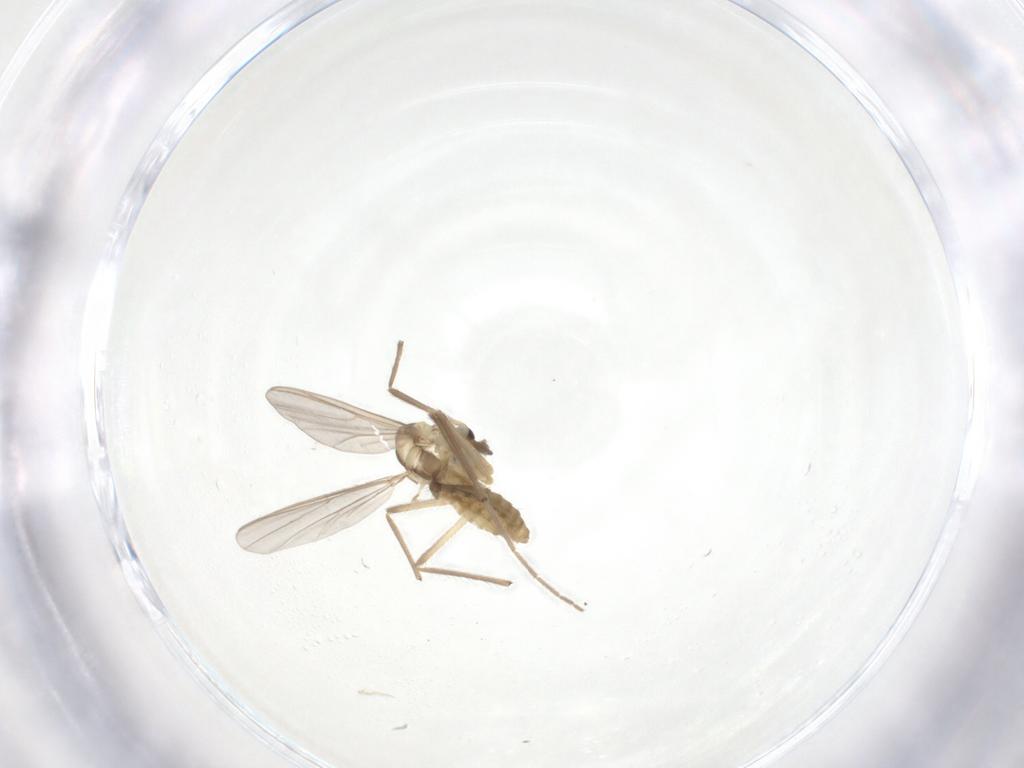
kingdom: Animalia
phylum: Arthropoda
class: Insecta
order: Diptera
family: Chironomidae
